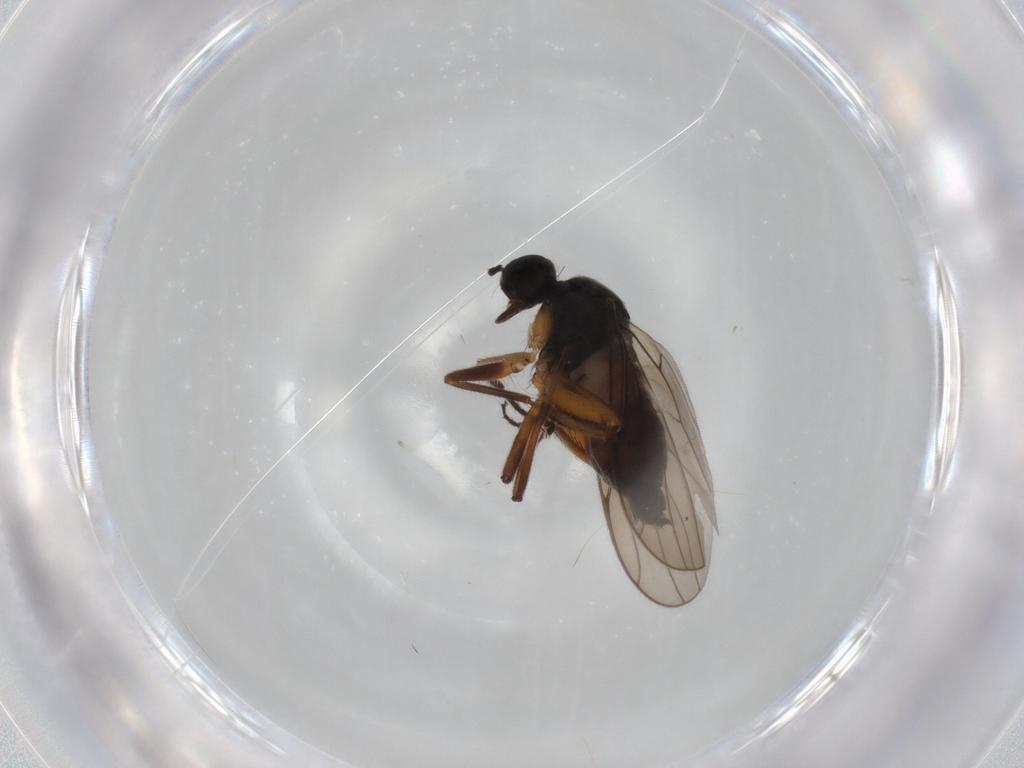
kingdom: Animalia
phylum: Arthropoda
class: Insecta
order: Diptera
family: Hybotidae
